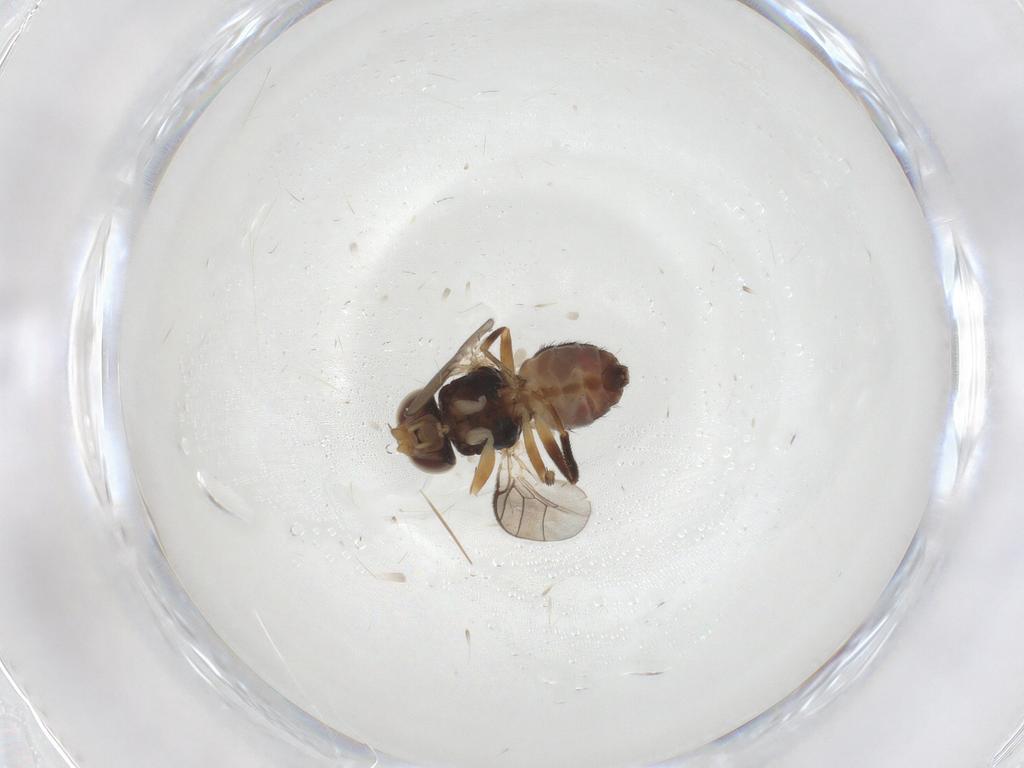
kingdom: Animalia
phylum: Arthropoda
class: Insecta
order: Diptera
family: Chloropidae
